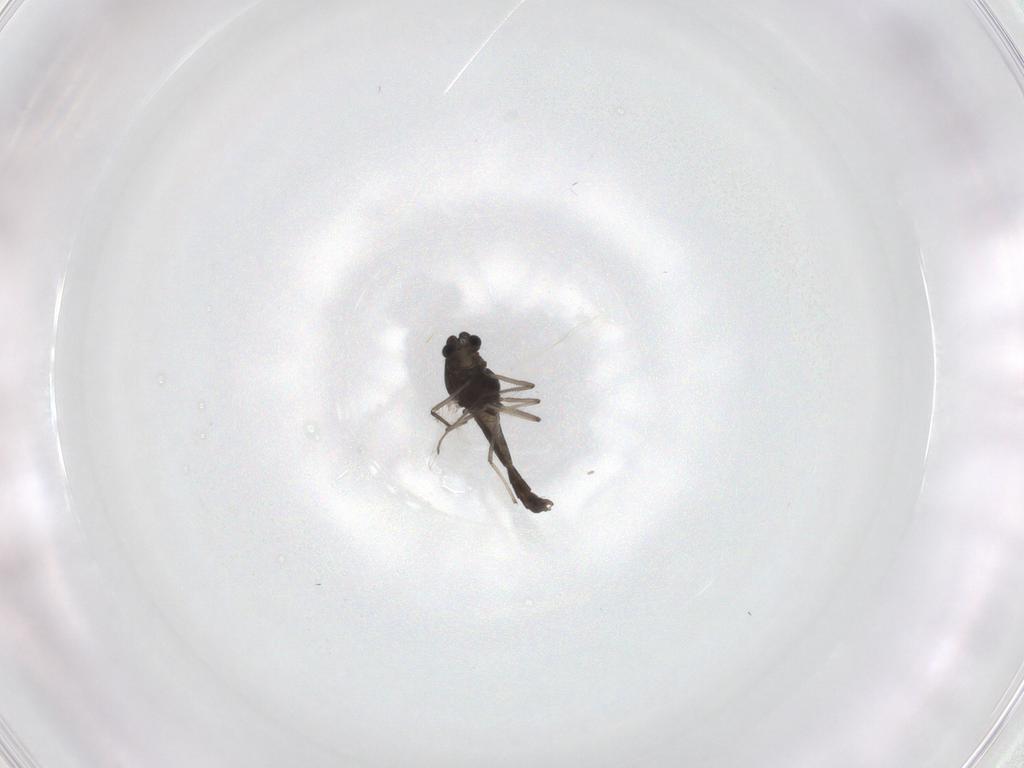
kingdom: Animalia
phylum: Arthropoda
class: Insecta
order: Diptera
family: Chironomidae
